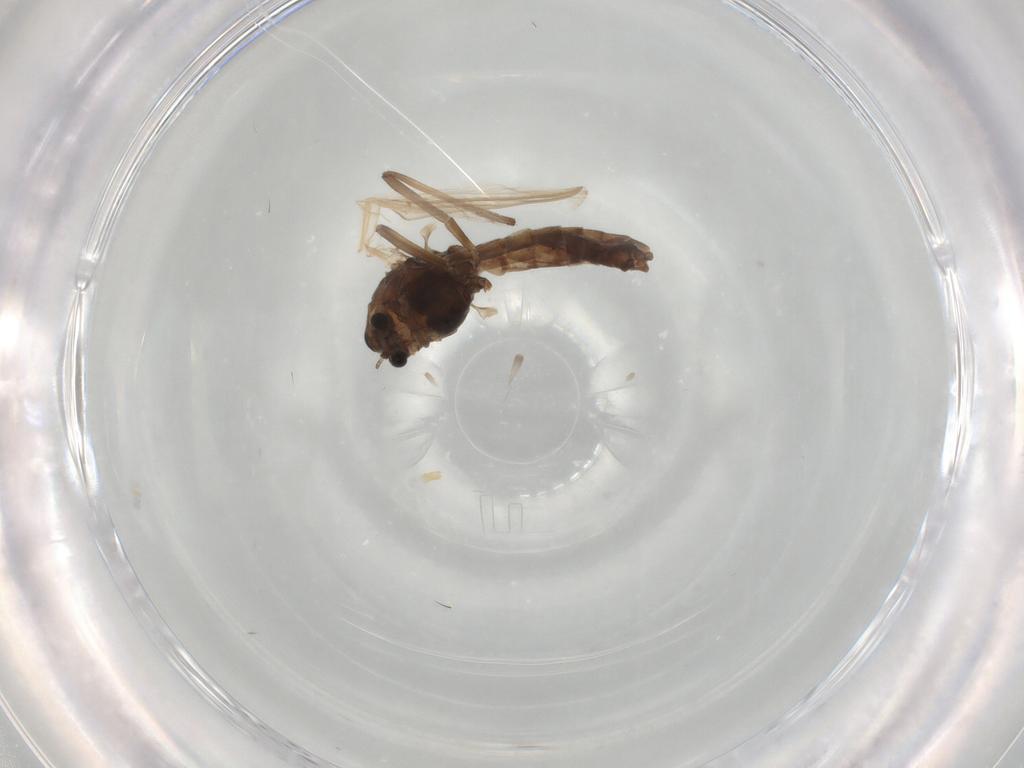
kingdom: Animalia
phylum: Arthropoda
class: Insecta
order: Diptera
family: Chironomidae
